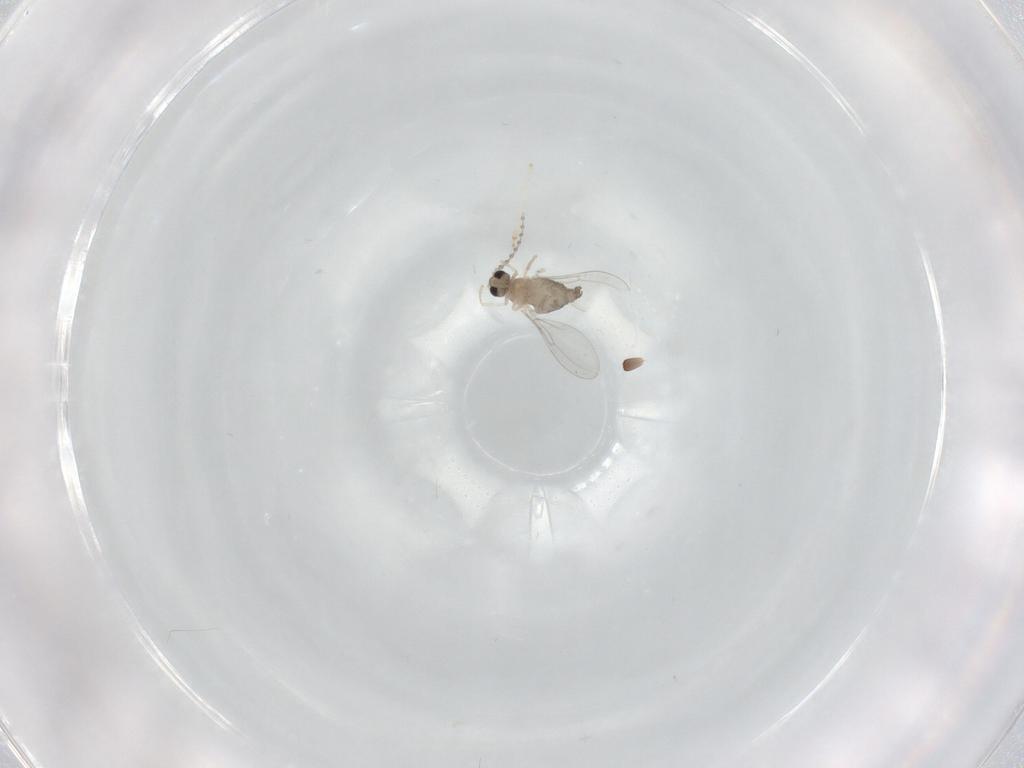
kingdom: Animalia
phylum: Arthropoda
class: Insecta
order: Diptera
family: Cecidomyiidae
